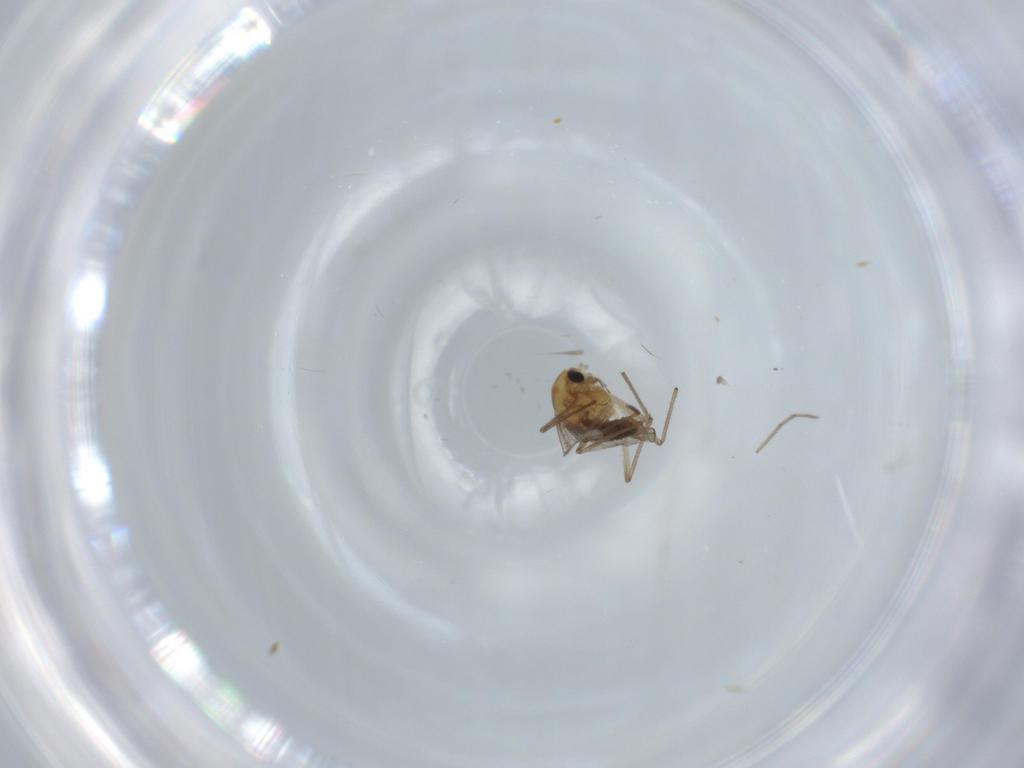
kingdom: Animalia
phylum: Arthropoda
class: Insecta
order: Diptera
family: Chironomidae
